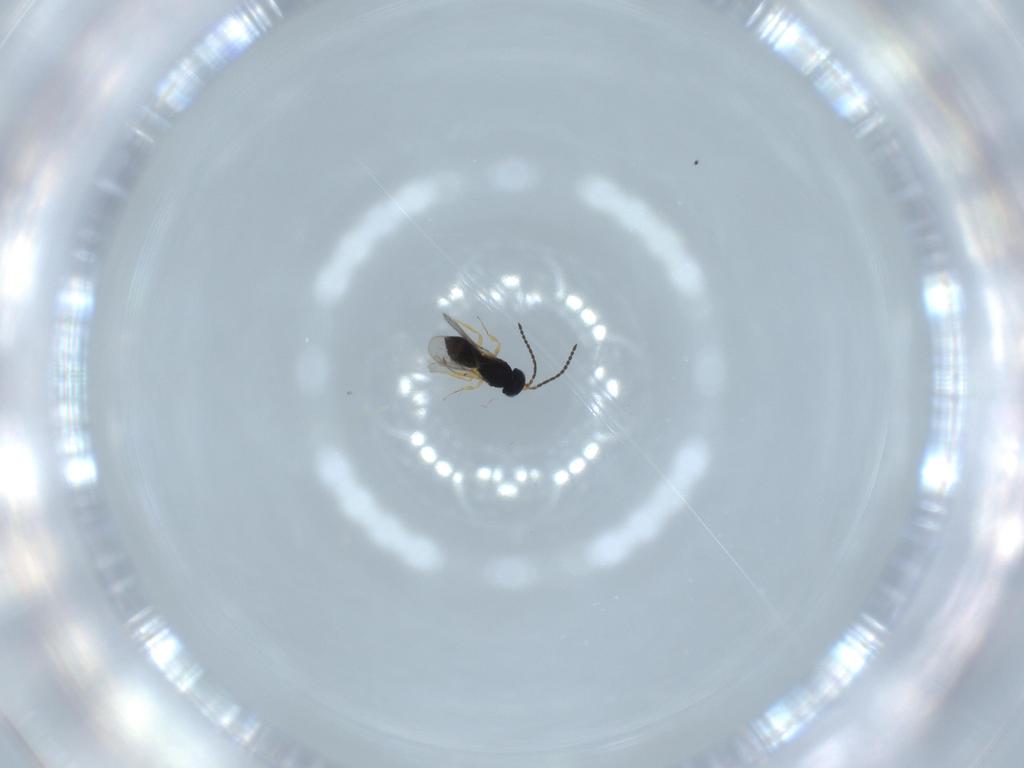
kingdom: Animalia
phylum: Arthropoda
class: Insecta
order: Hymenoptera
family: Scelionidae
